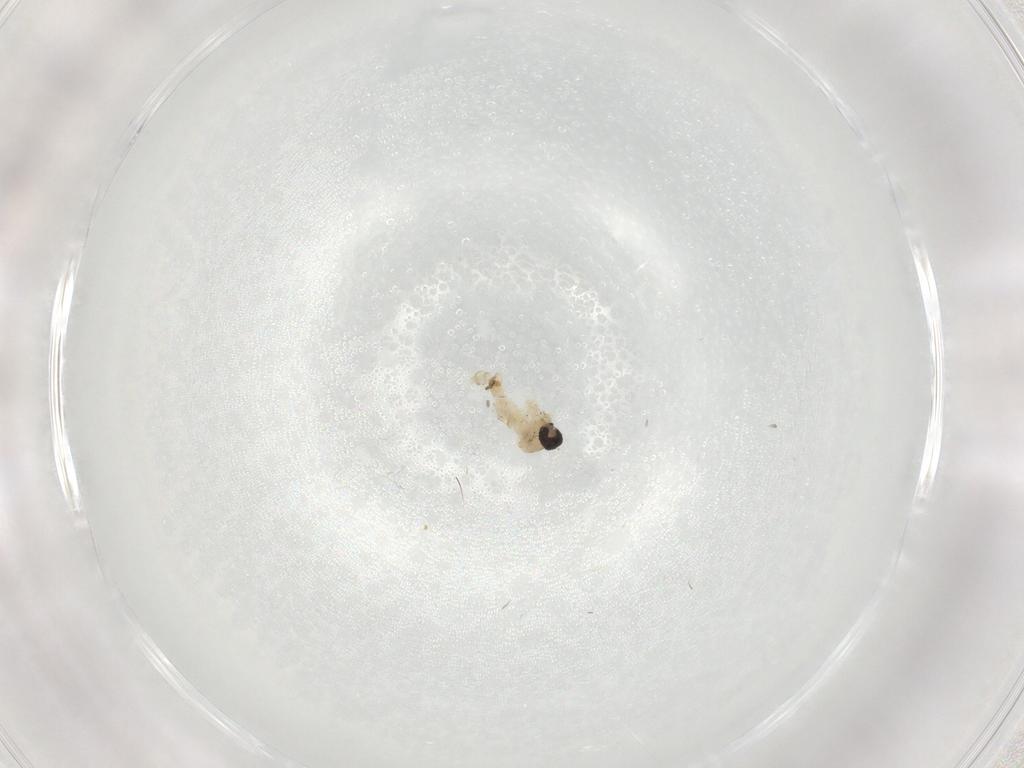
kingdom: Animalia
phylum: Arthropoda
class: Insecta
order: Diptera
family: Cecidomyiidae
